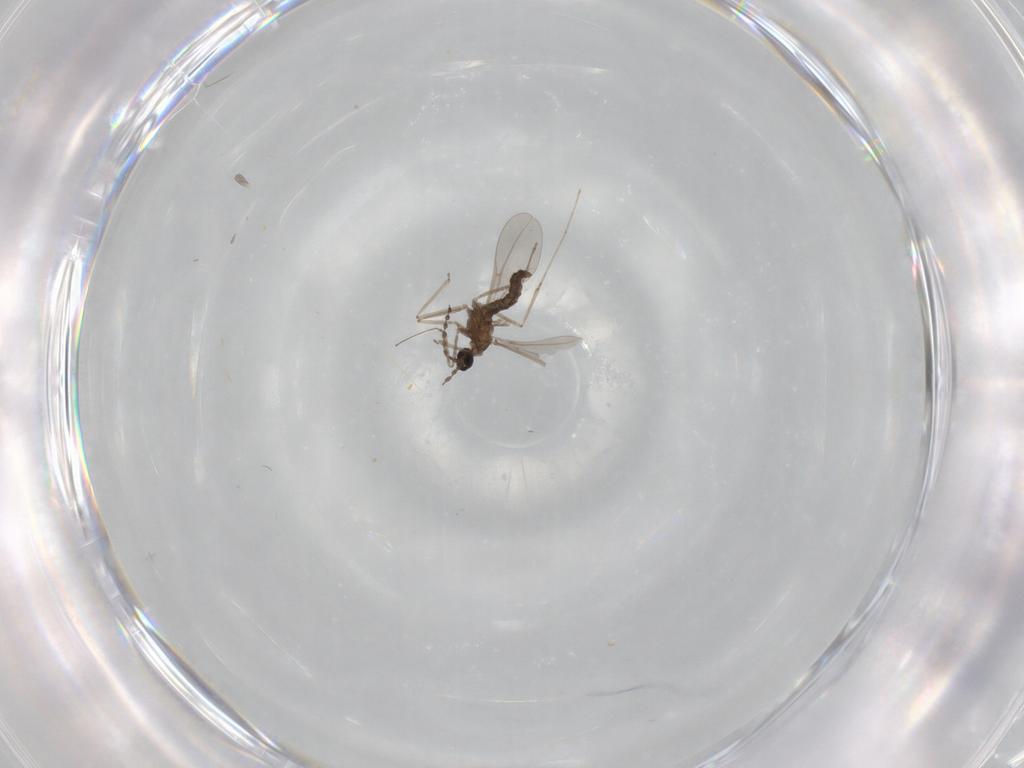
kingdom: Animalia
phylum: Arthropoda
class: Insecta
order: Diptera
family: Cecidomyiidae
